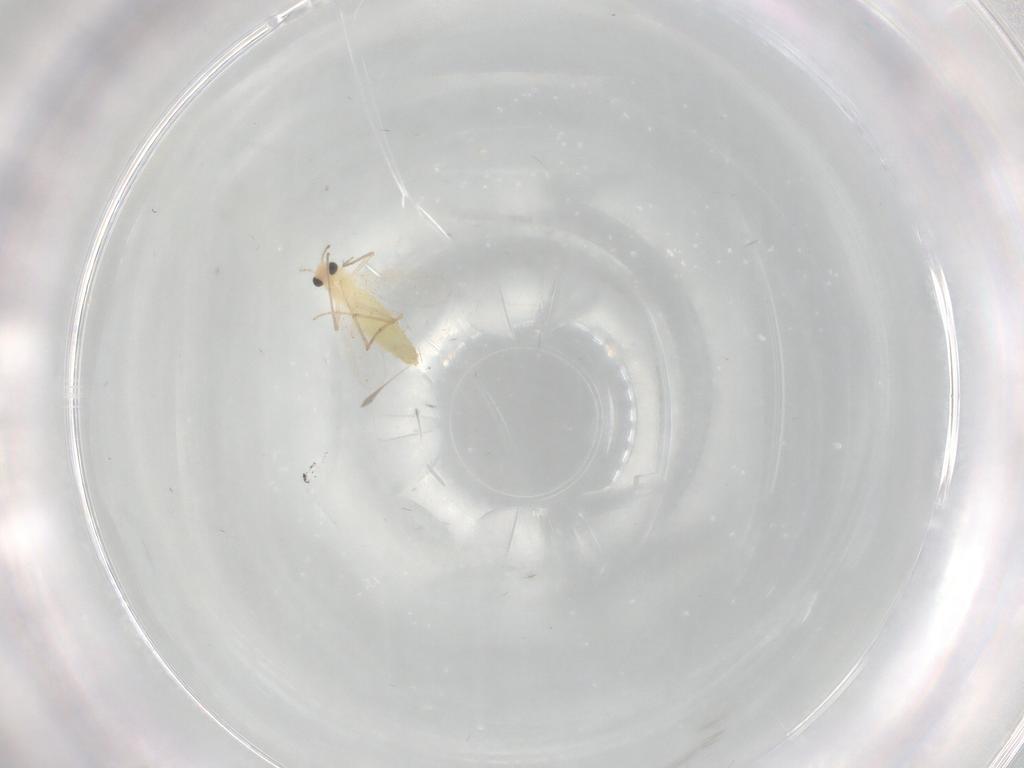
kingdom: Animalia
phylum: Arthropoda
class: Insecta
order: Diptera
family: Chironomidae
